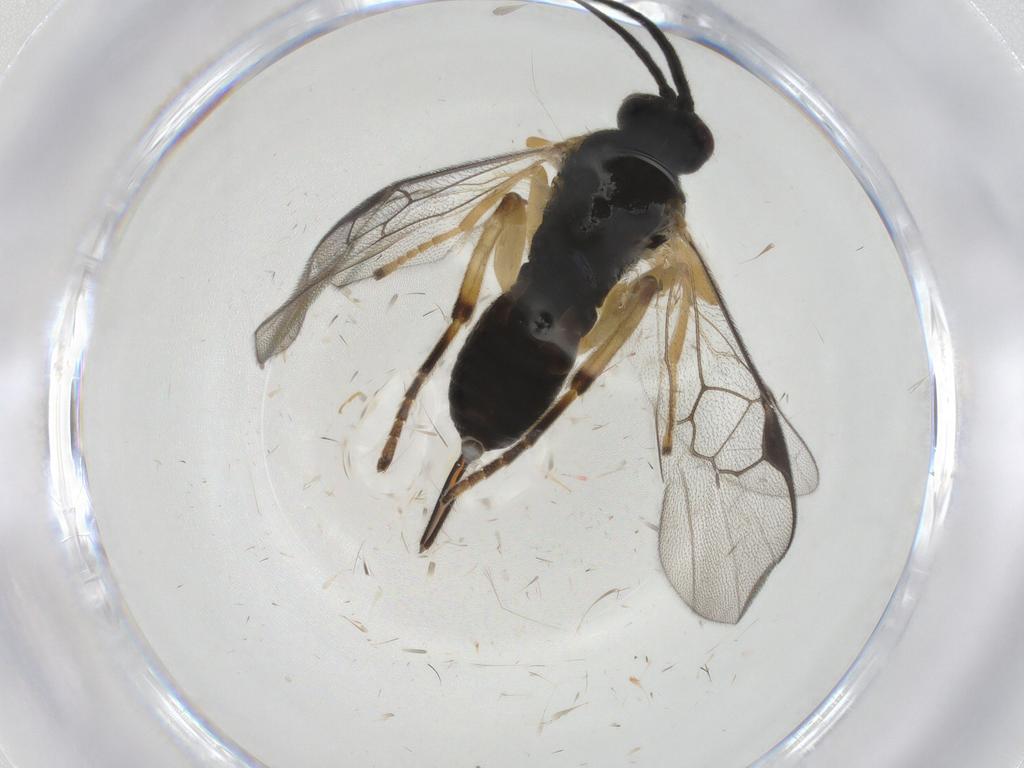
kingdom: Animalia
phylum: Arthropoda
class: Insecta
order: Hymenoptera
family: Braconidae
